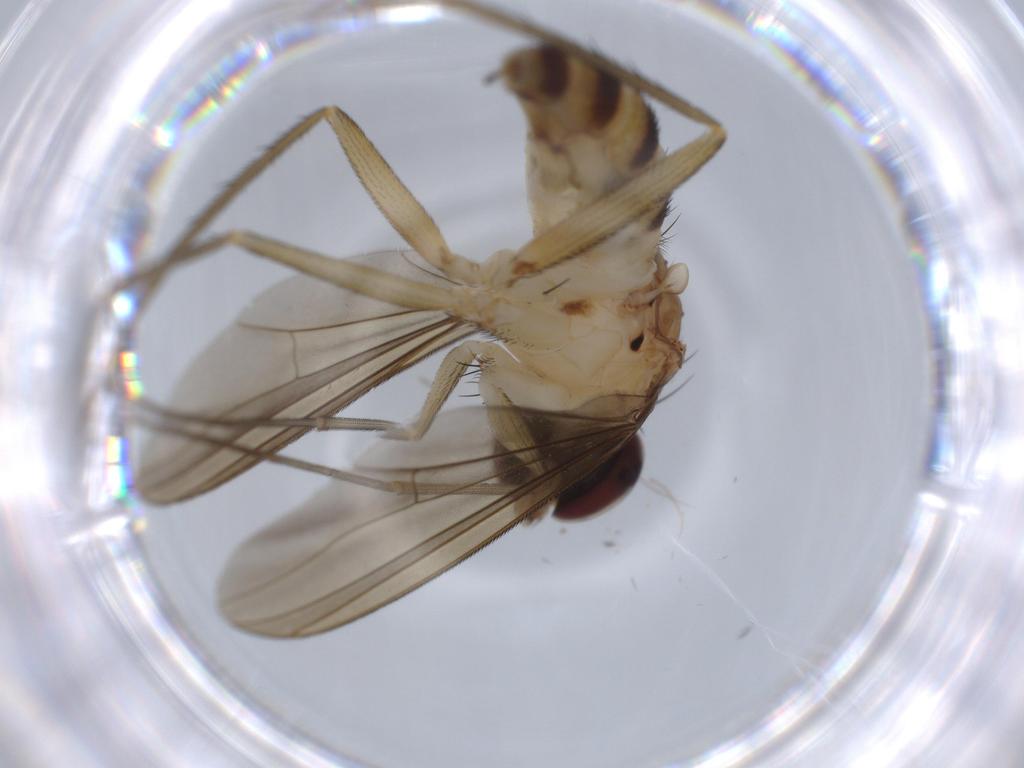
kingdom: Animalia
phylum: Arthropoda
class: Insecta
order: Diptera
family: Dolichopodidae
